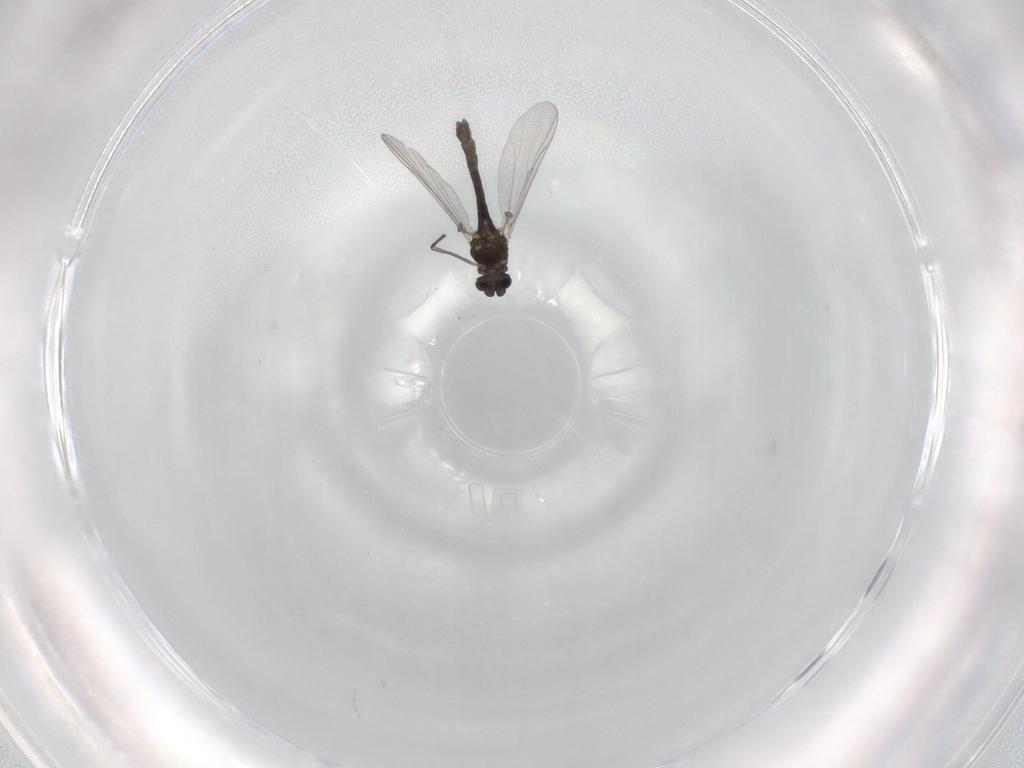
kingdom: Animalia
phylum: Arthropoda
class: Insecta
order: Diptera
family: Chironomidae
